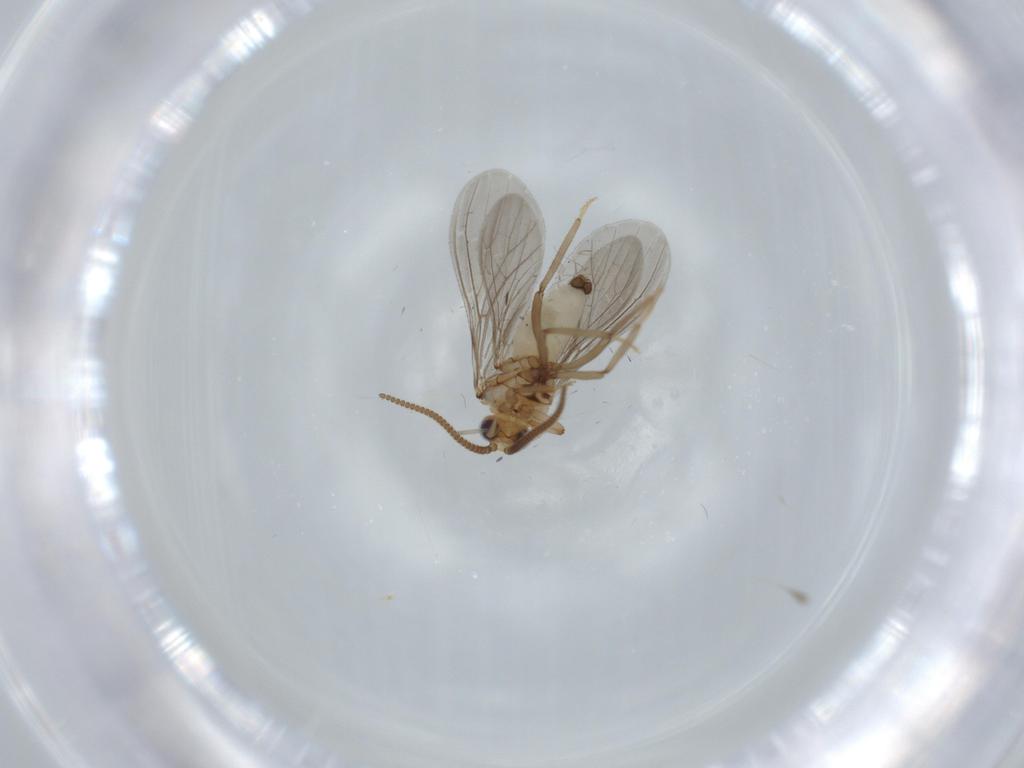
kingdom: Animalia
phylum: Arthropoda
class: Insecta
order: Neuroptera
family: Coniopterygidae
